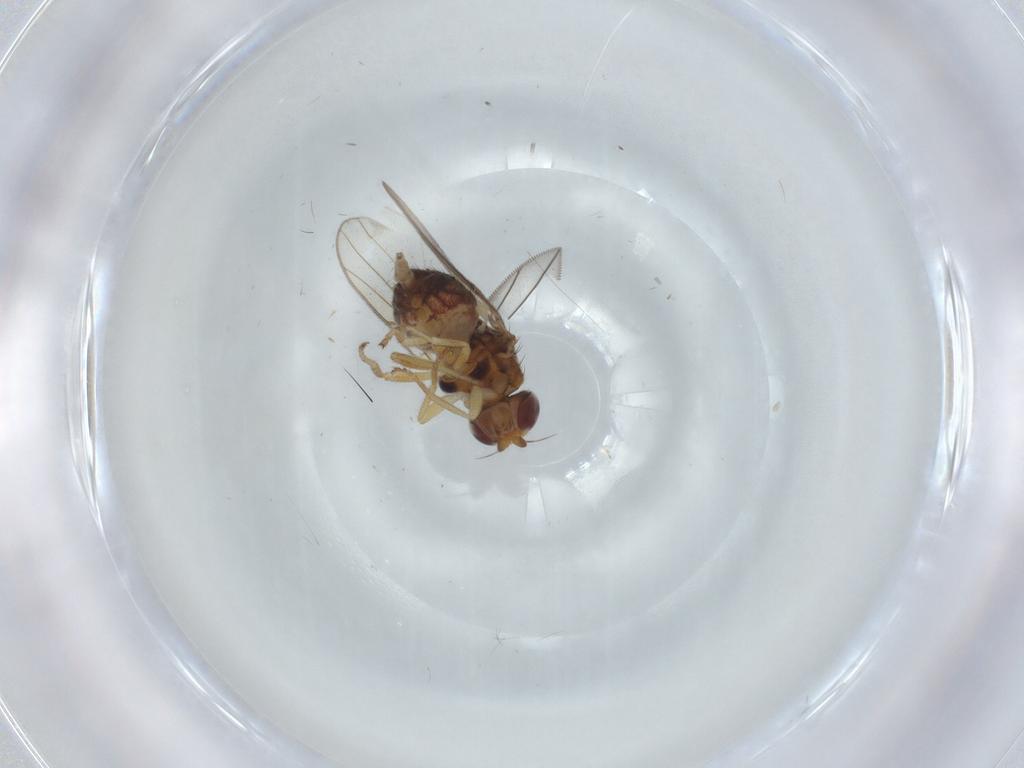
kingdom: Animalia
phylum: Arthropoda
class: Insecta
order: Diptera
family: Chloropidae
